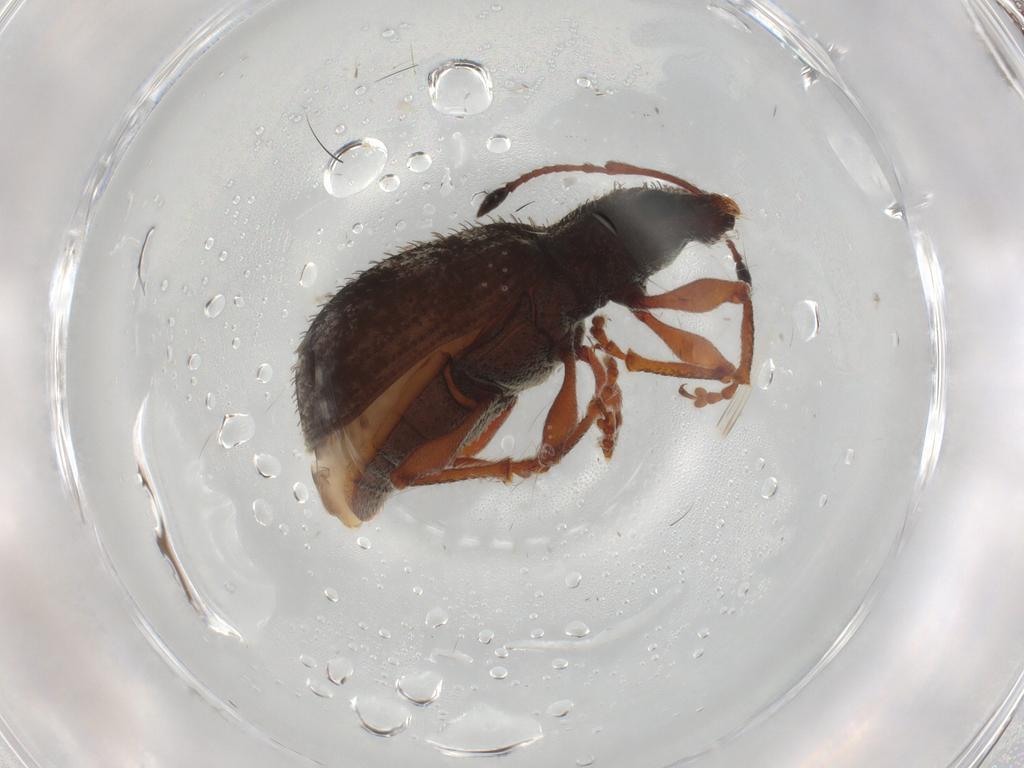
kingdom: Animalia
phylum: Arthropoda
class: Insecta
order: Coleoptera
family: Curculionidae
